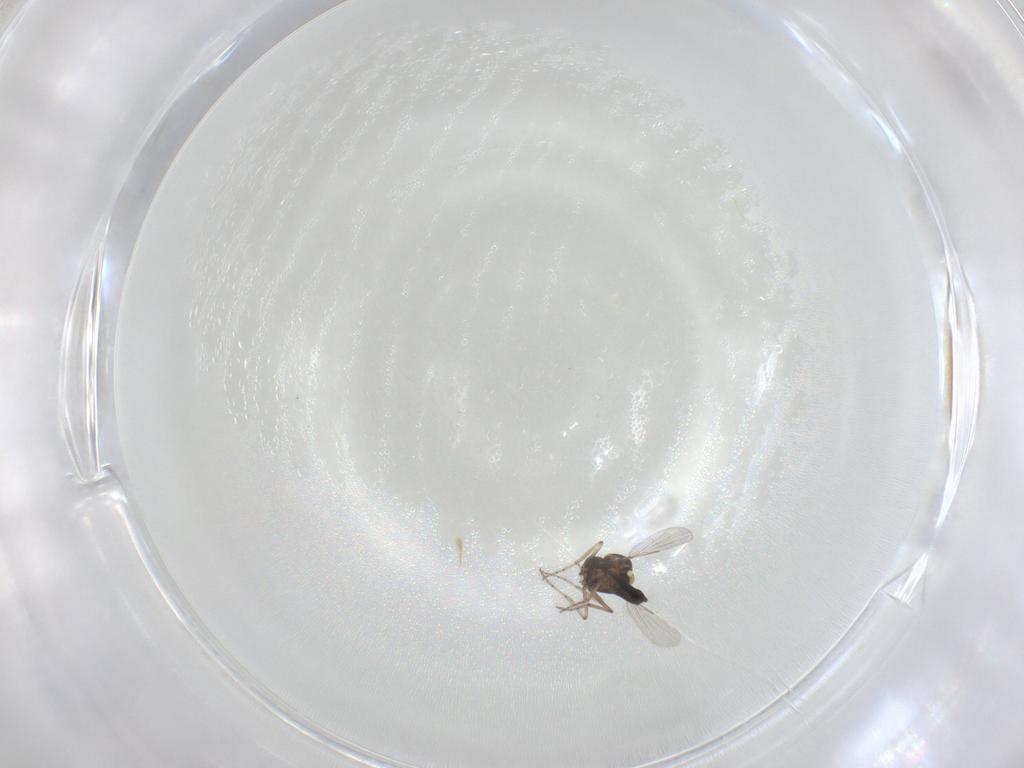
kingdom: Animalia
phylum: Arthropoda
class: Insecta
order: Diptera
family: Ceratopogonidae
